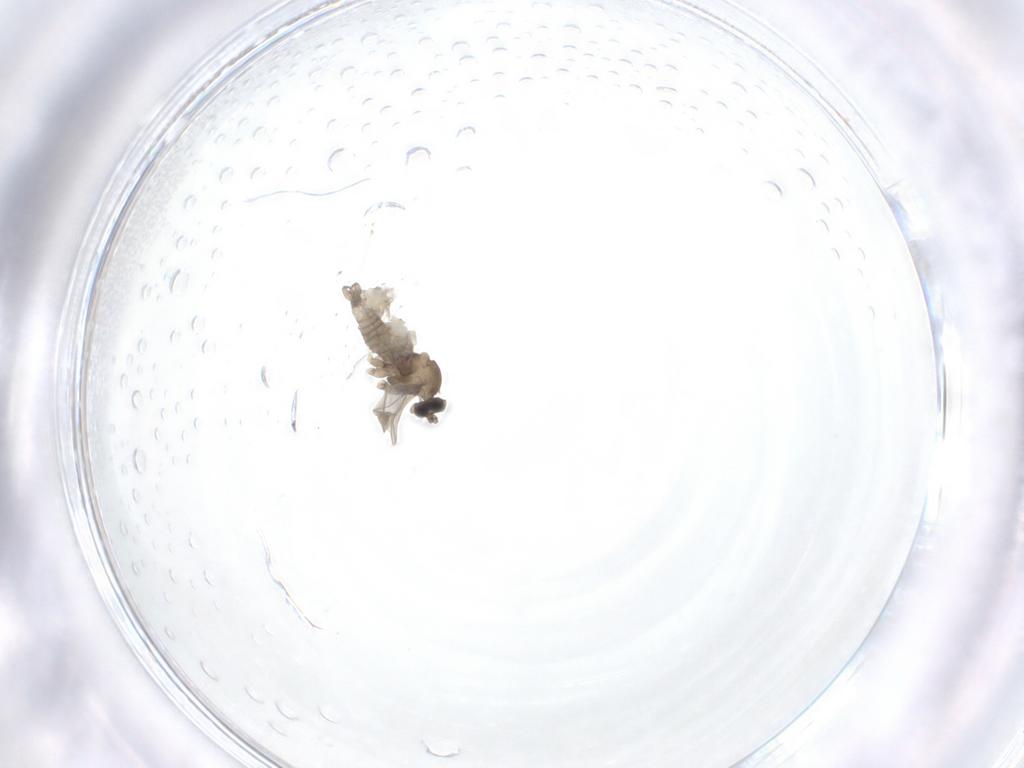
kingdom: Animalia
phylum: Arthropoda
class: Insecta
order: Diptera
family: Cecidomyiidae
